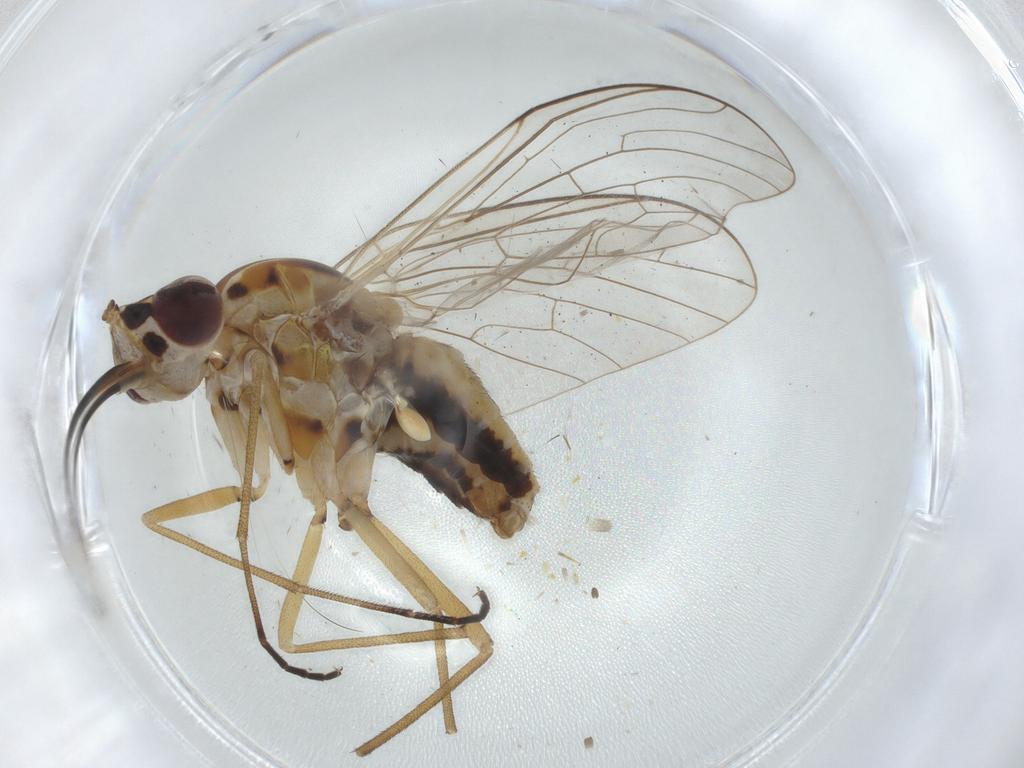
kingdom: Animalia
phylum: Arthropoda
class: Insecta
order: Diptera
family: Bombyliidae
